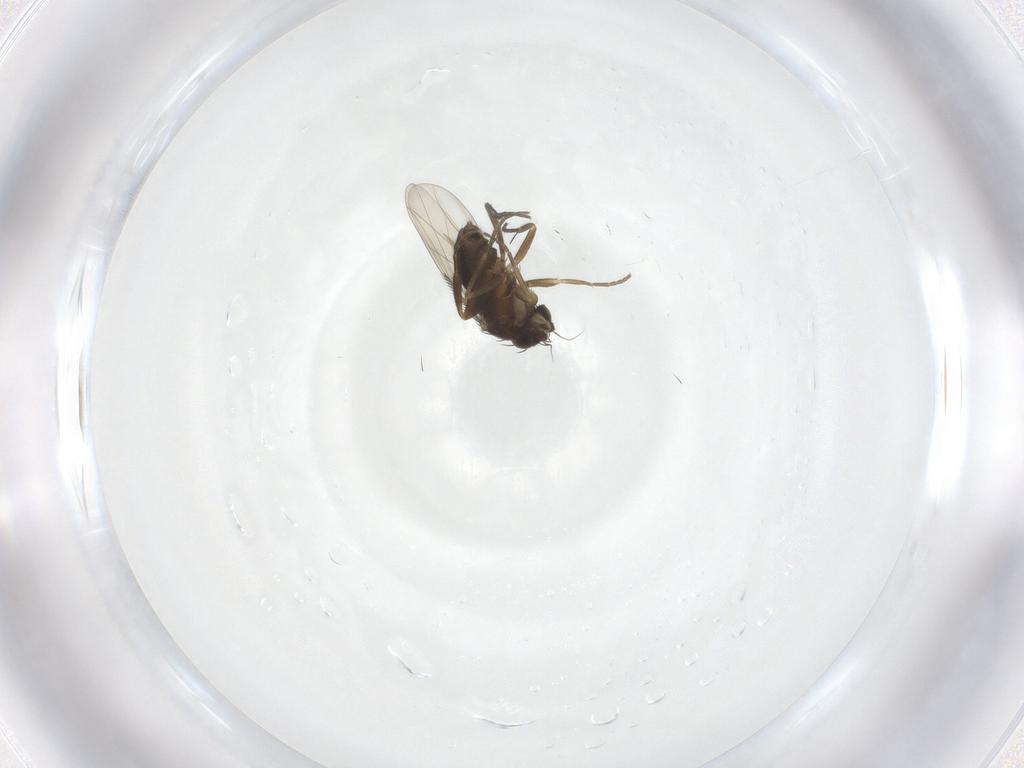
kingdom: Animalia
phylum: Arthropoda
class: Insecta
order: Diptera
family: Phoridae
